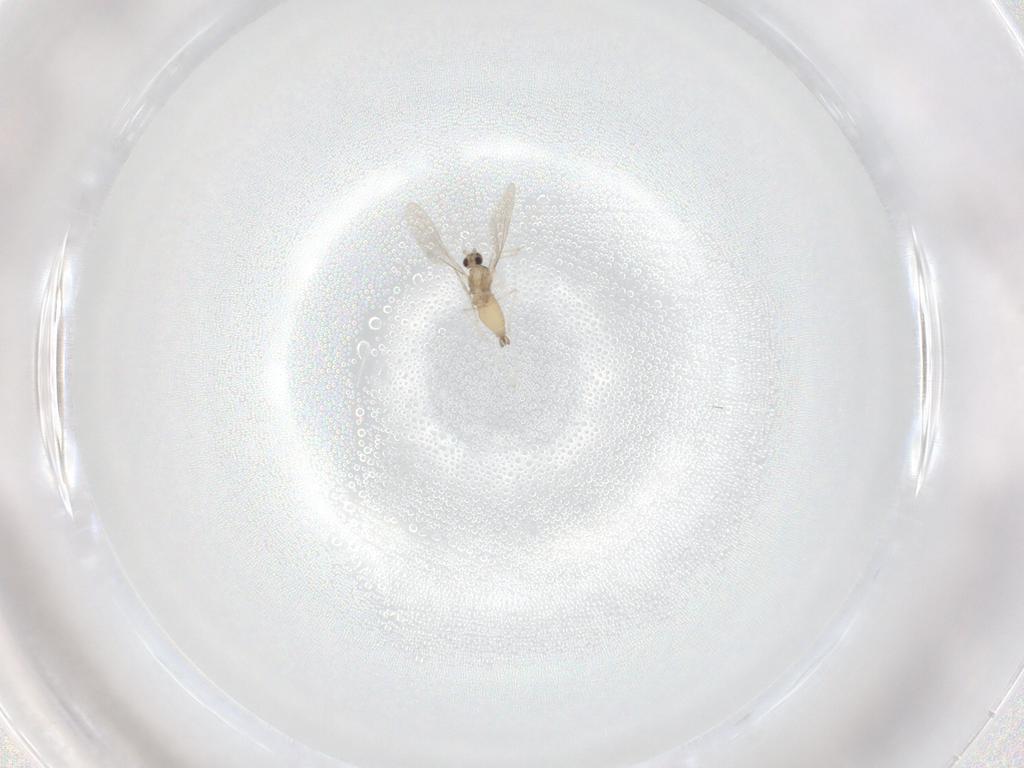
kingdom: Animalia
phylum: Arthropoda
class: Insecta
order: Diptera
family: Cecidomyiidae
